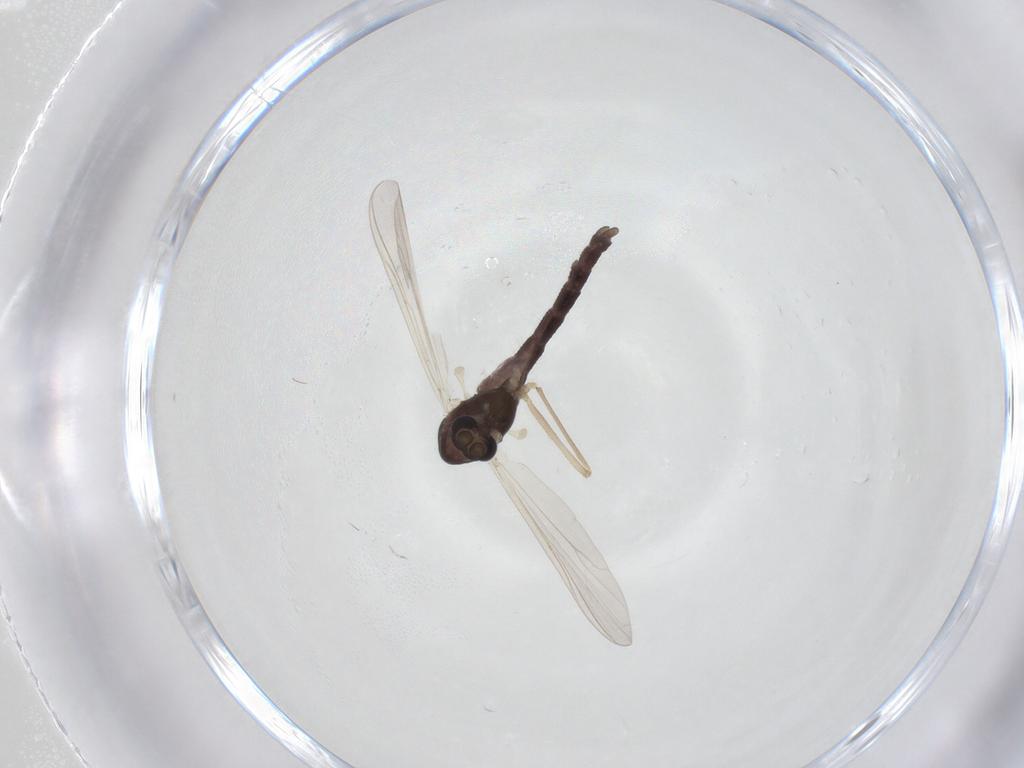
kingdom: Animalia
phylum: Arthropoda
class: Insecta
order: Diptera
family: Chironomidae
